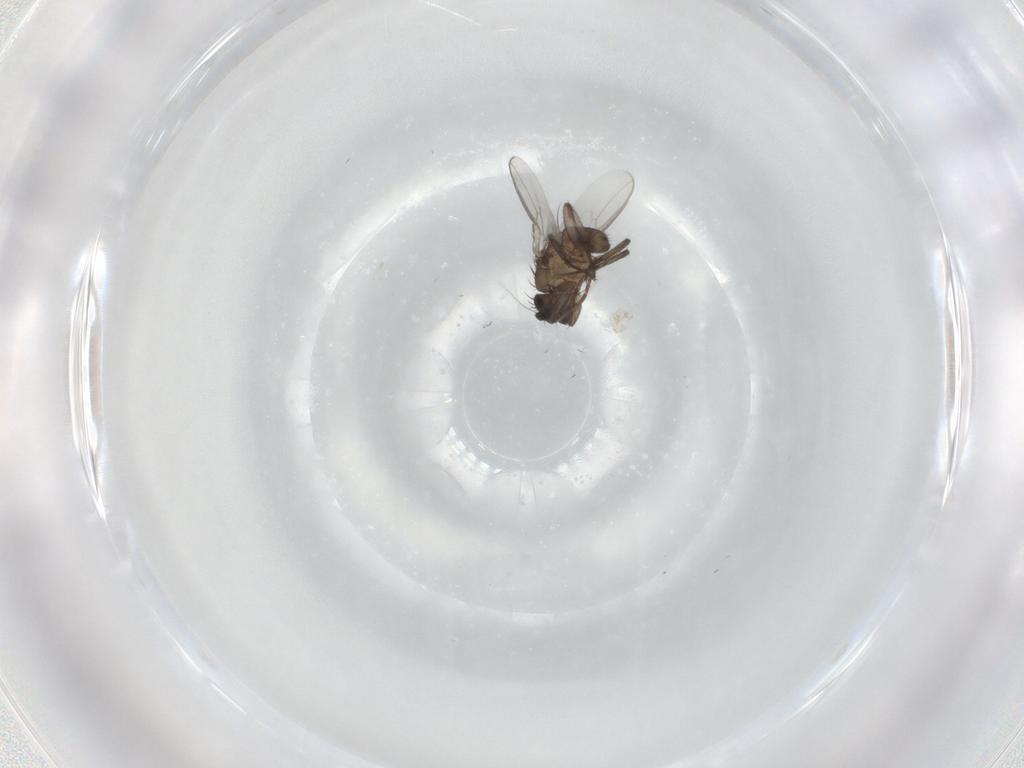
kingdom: Animalia
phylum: Arthropoda
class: Insecta
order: Diptera
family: Sphaeroceridae
